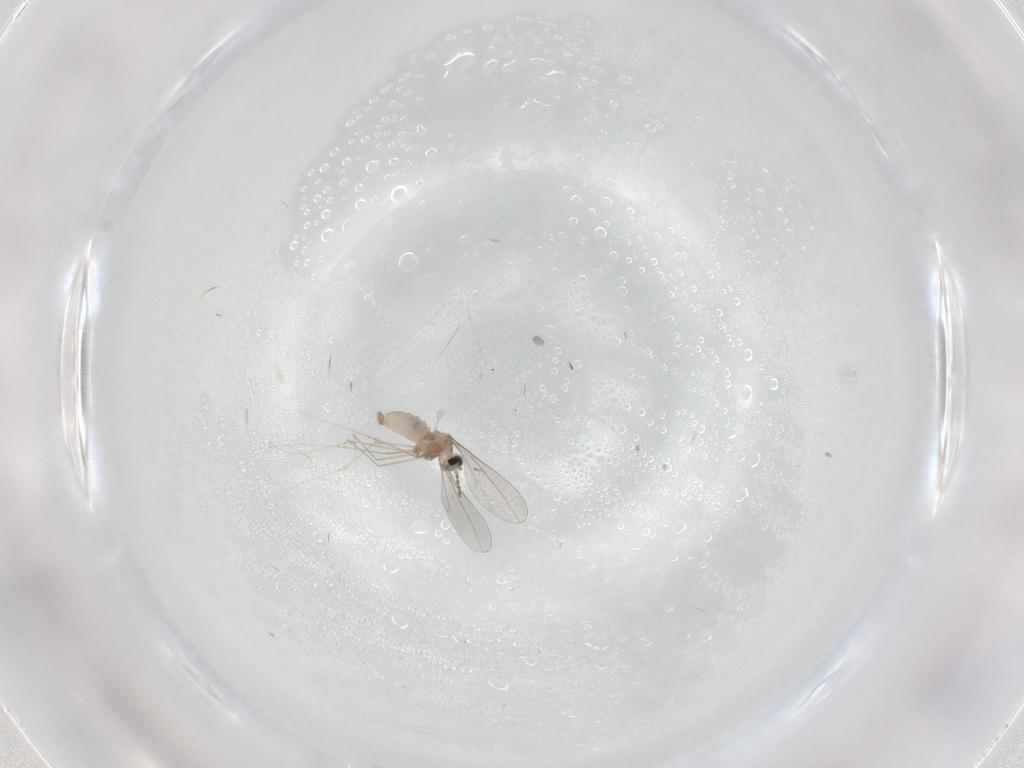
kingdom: Animalia
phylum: Arthropoda
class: Insecta
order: Diptera
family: Cecidomyiidae
